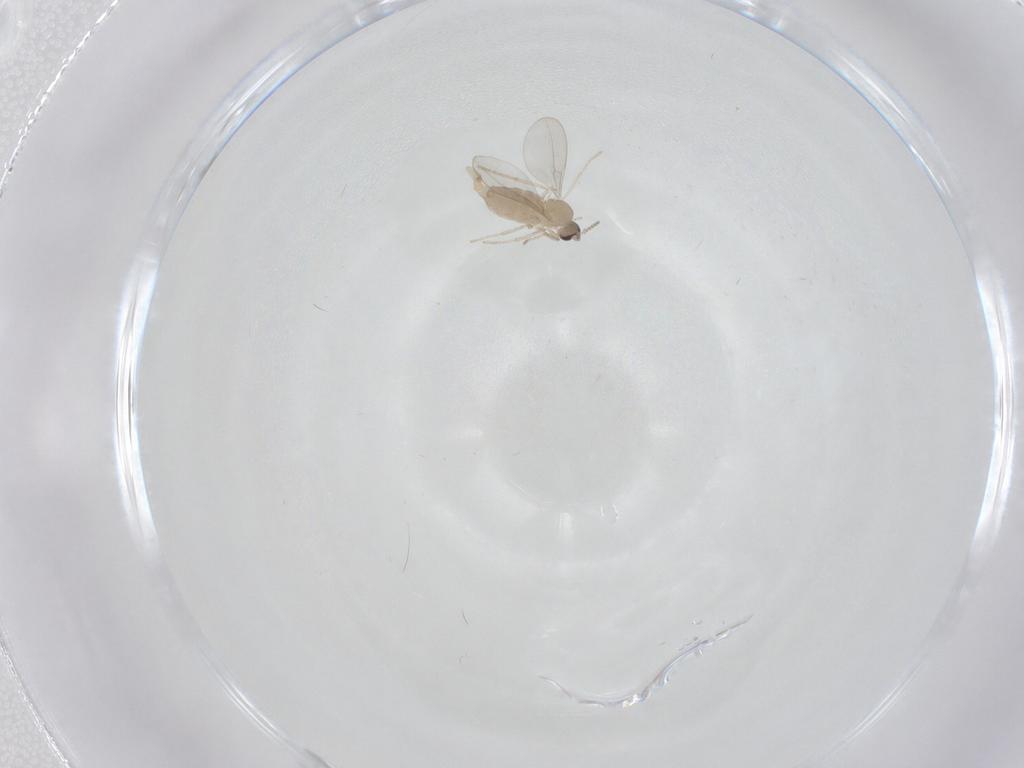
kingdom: Animalia
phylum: Arthropoda
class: Insecta
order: Diptera
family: Cecidomyiidae
